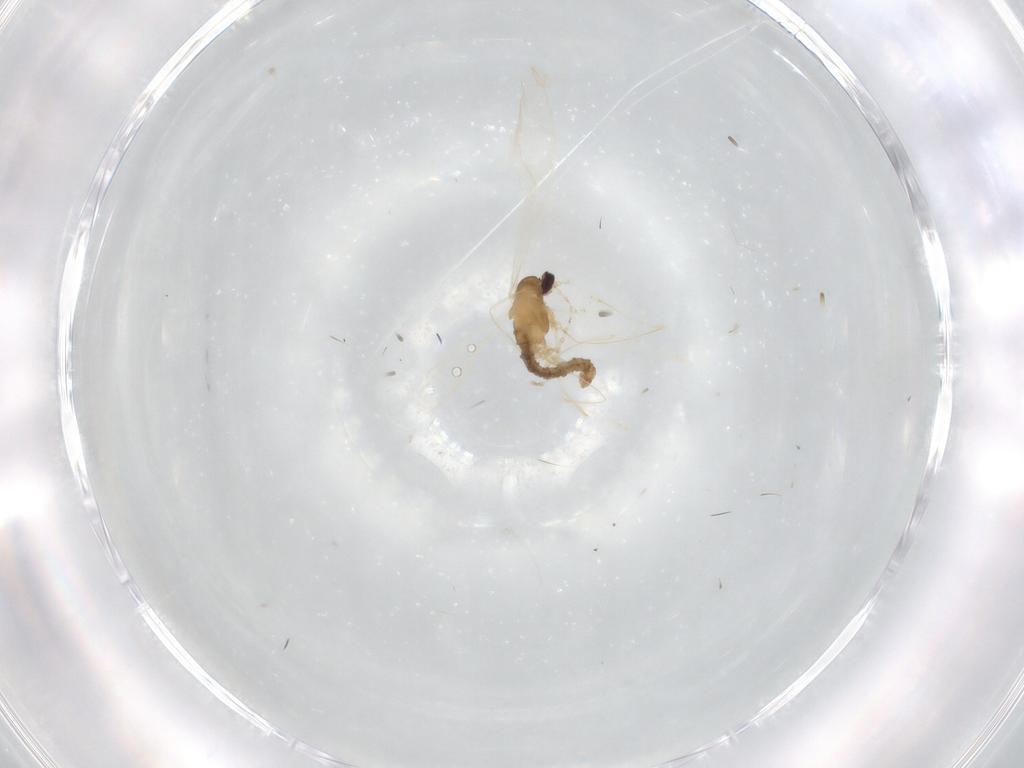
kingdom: Animalia
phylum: Arthropoda
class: Insecta
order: Diptera
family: Cecidomyiidae
